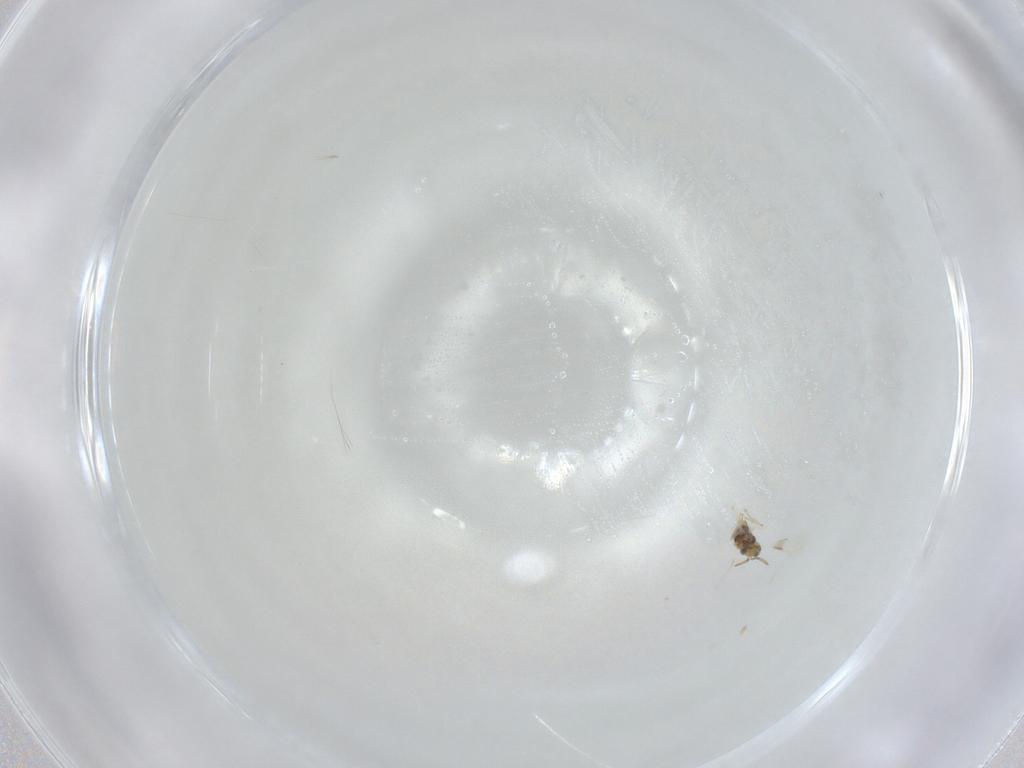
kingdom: Animalia
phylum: Arthropoda
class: Insecta
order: Hymenoptera
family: Aphelinidae
